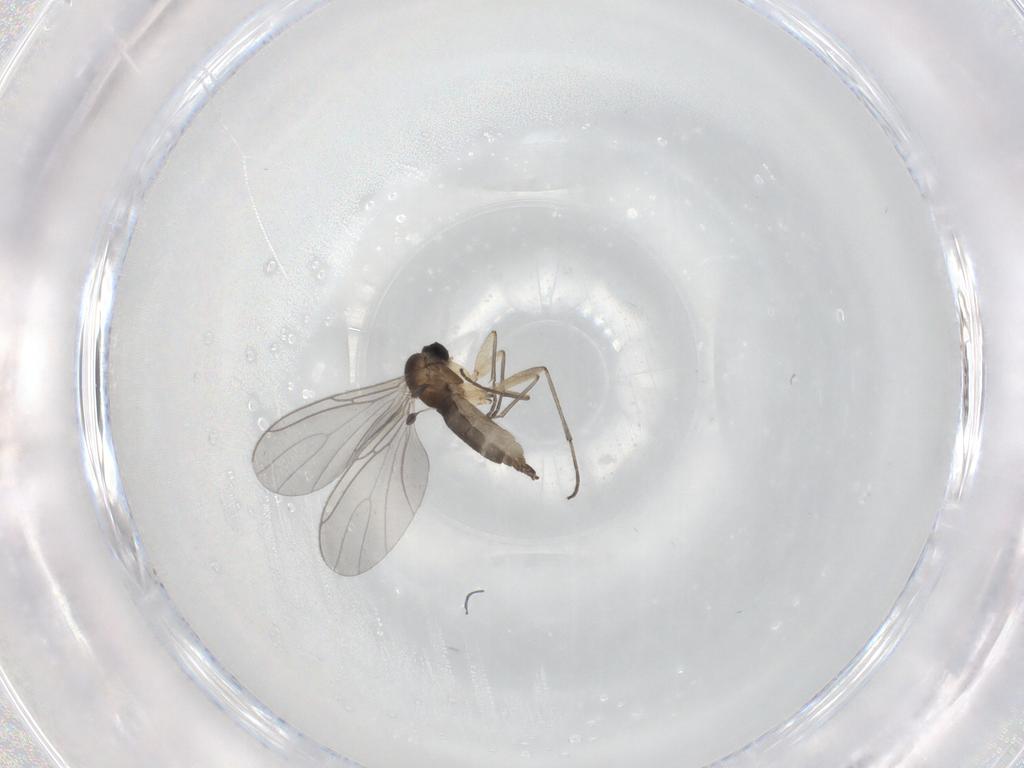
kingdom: Animalia
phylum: Arthropoda
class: Insecta
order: Diptera
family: Sciaridae
